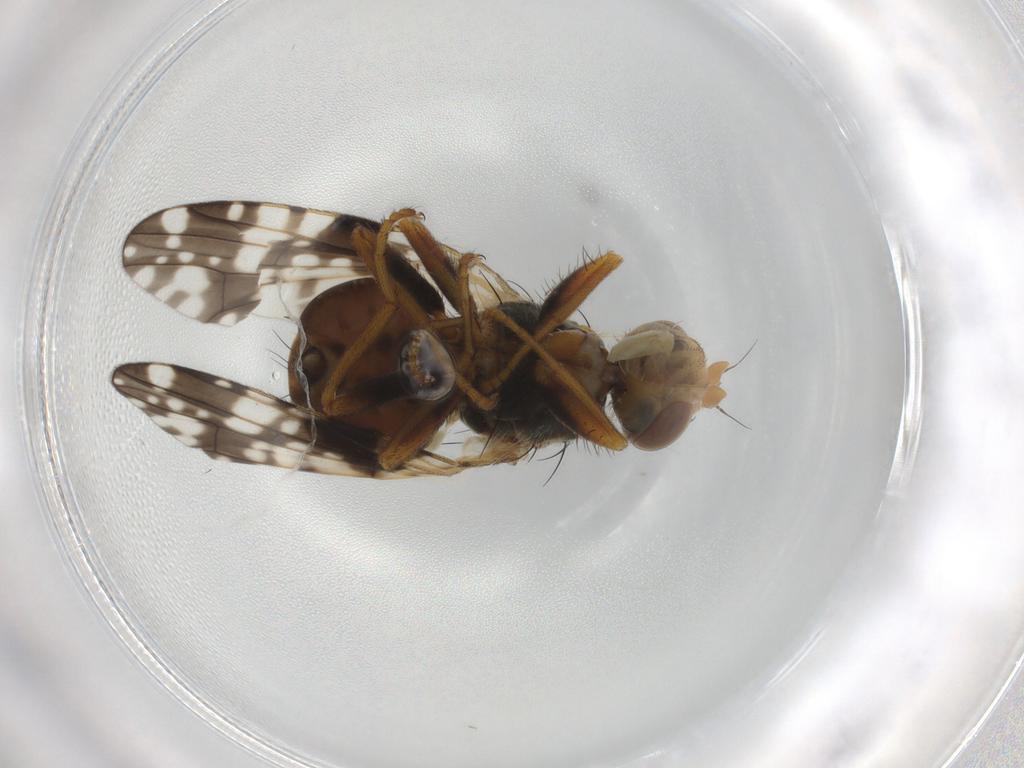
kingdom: Animalia
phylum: Arthropoda
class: Insecta
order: Diptera
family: Tephritidae
